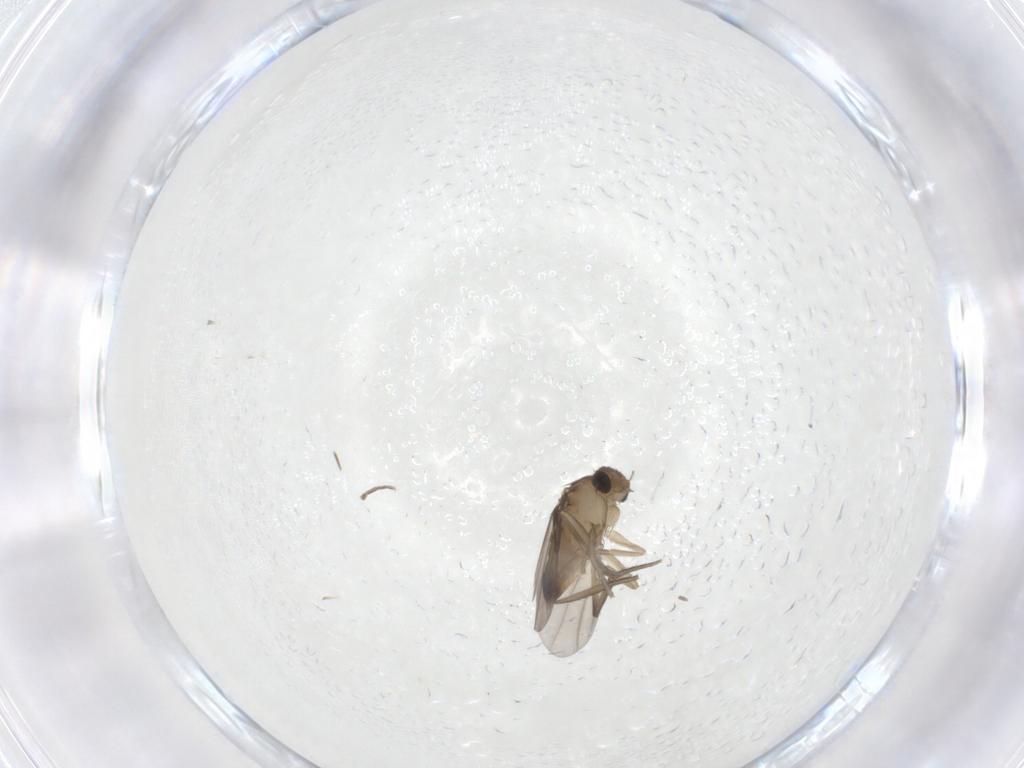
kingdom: Animalia
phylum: Arthropoda
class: Insecta
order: Diptera
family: Phoridae
